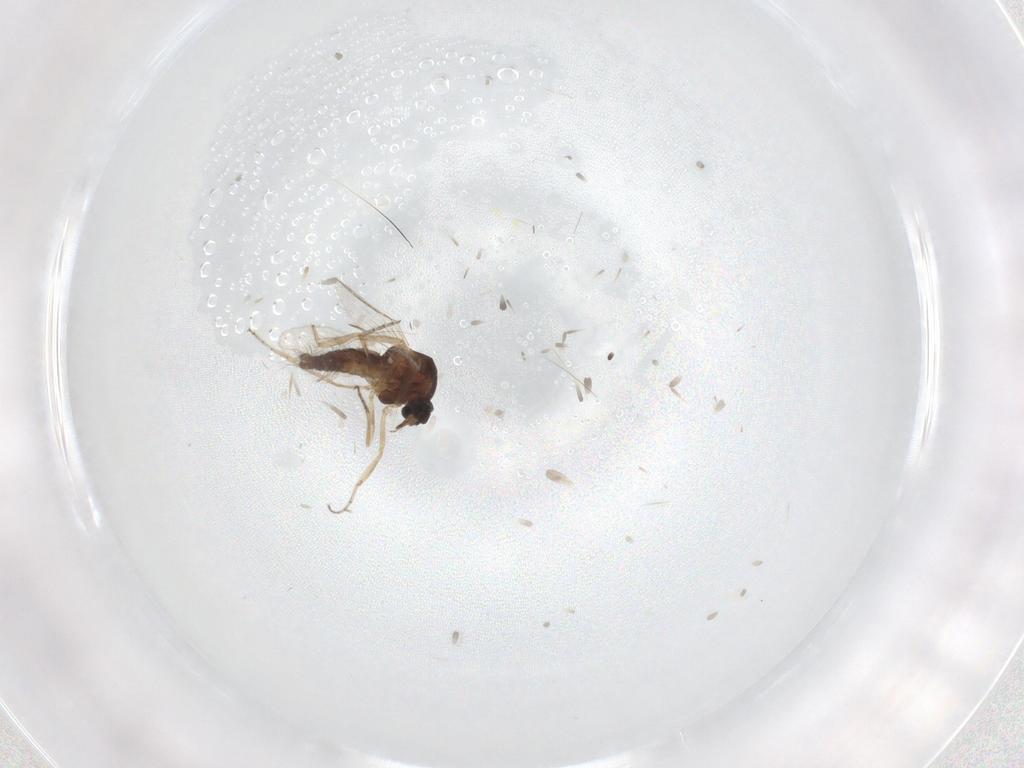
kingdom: Animalia
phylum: Arthropoda
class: Insecta
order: Diptera
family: Ceratopogonidae
